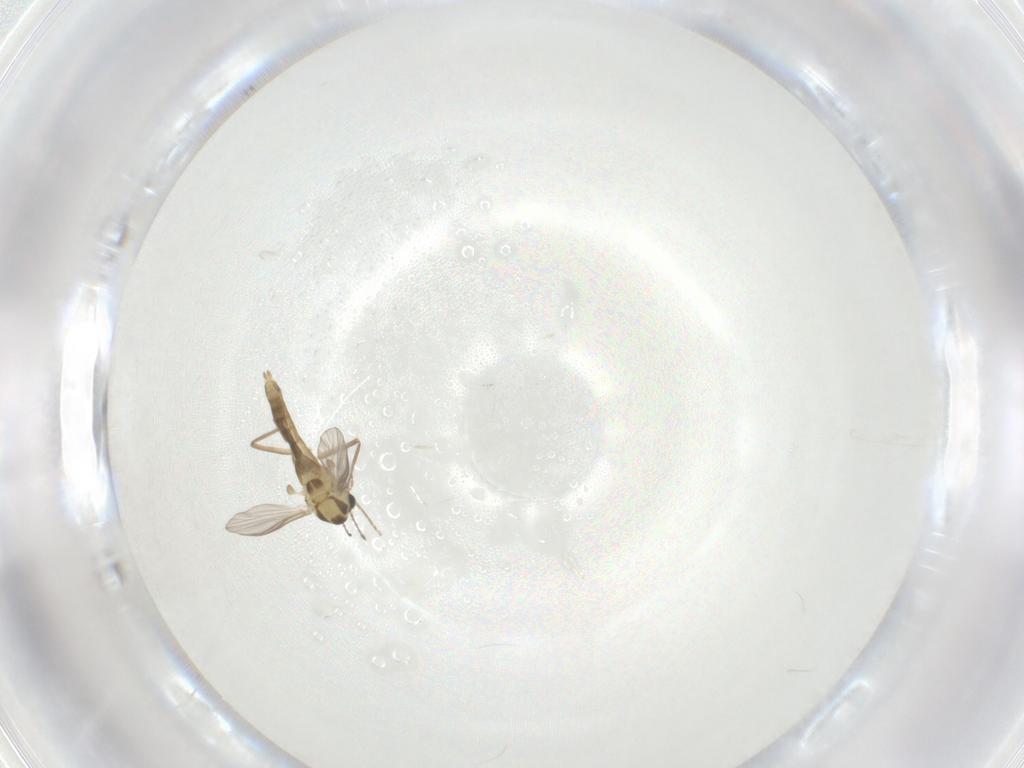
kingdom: Animalia
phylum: Arthropoda
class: Insecta
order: Diptera
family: Chironomidae
